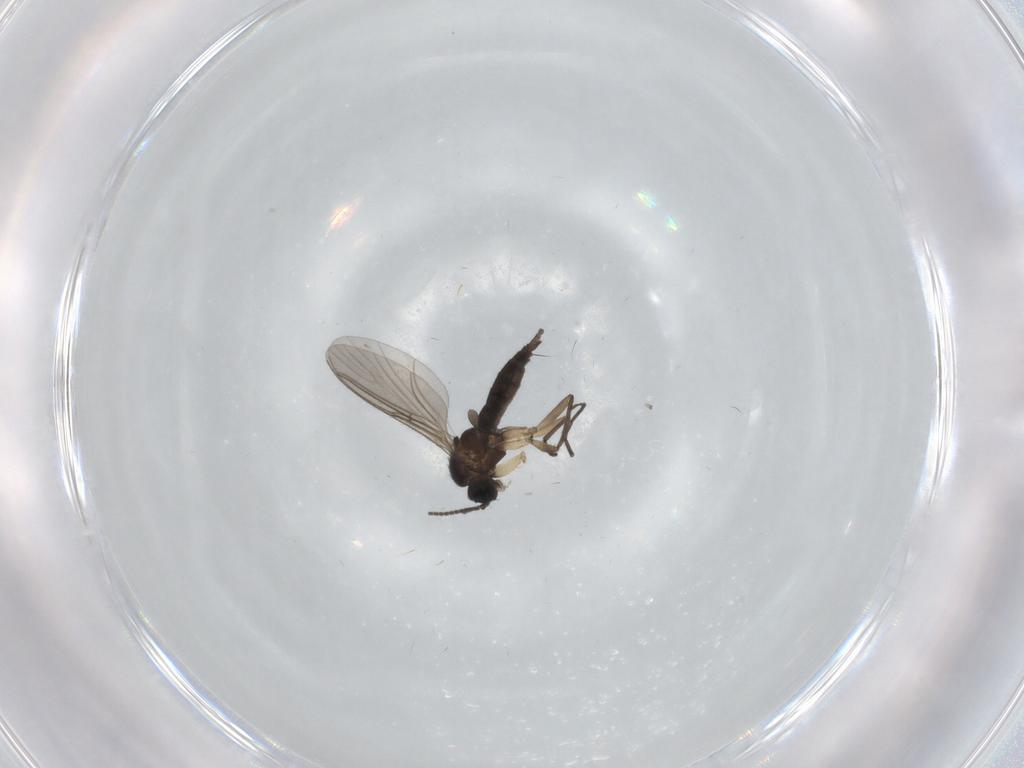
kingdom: Animalia
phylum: Arthropoda
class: Insecta
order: Diptera
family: Sciaridae
